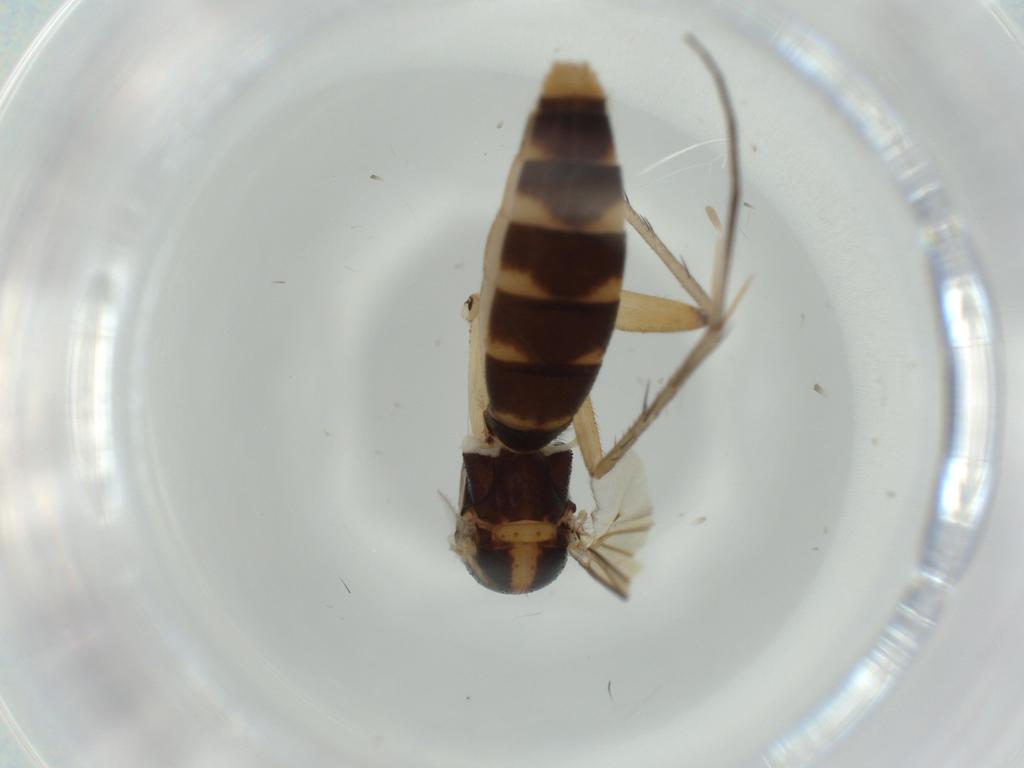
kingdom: Animalia
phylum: Arthropoda
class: Insecta
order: Diptera
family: Mycetophilidae
